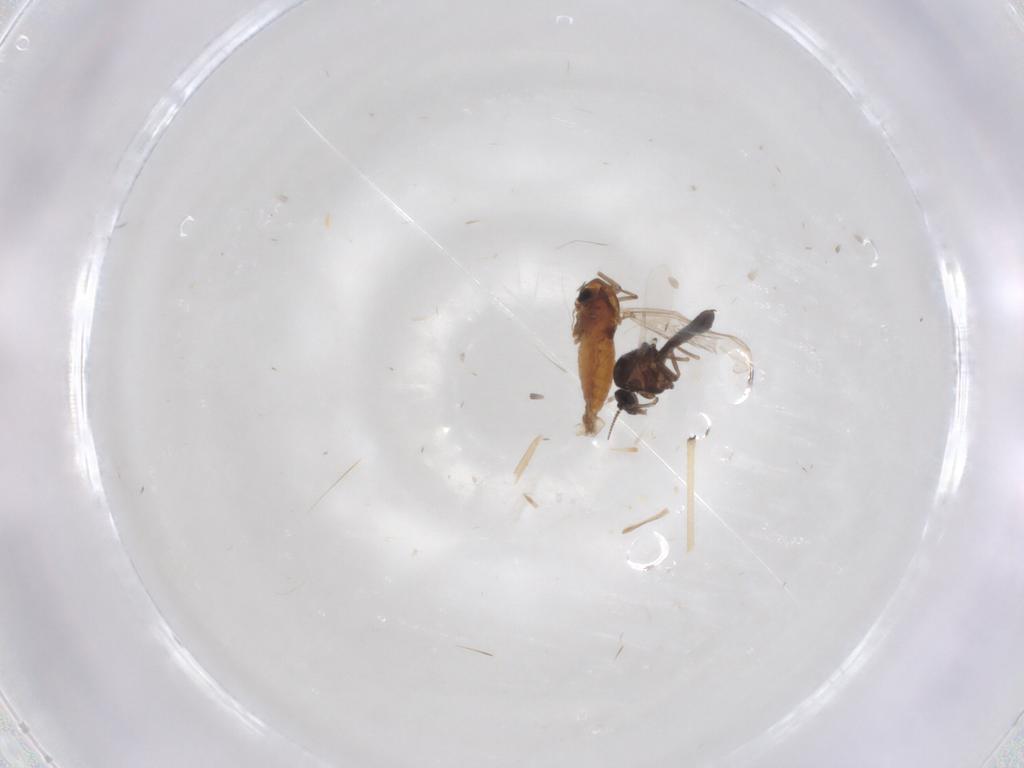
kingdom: Animalia
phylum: Arthropoda
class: Insecta
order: Diptera
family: Ceratopogonidae
